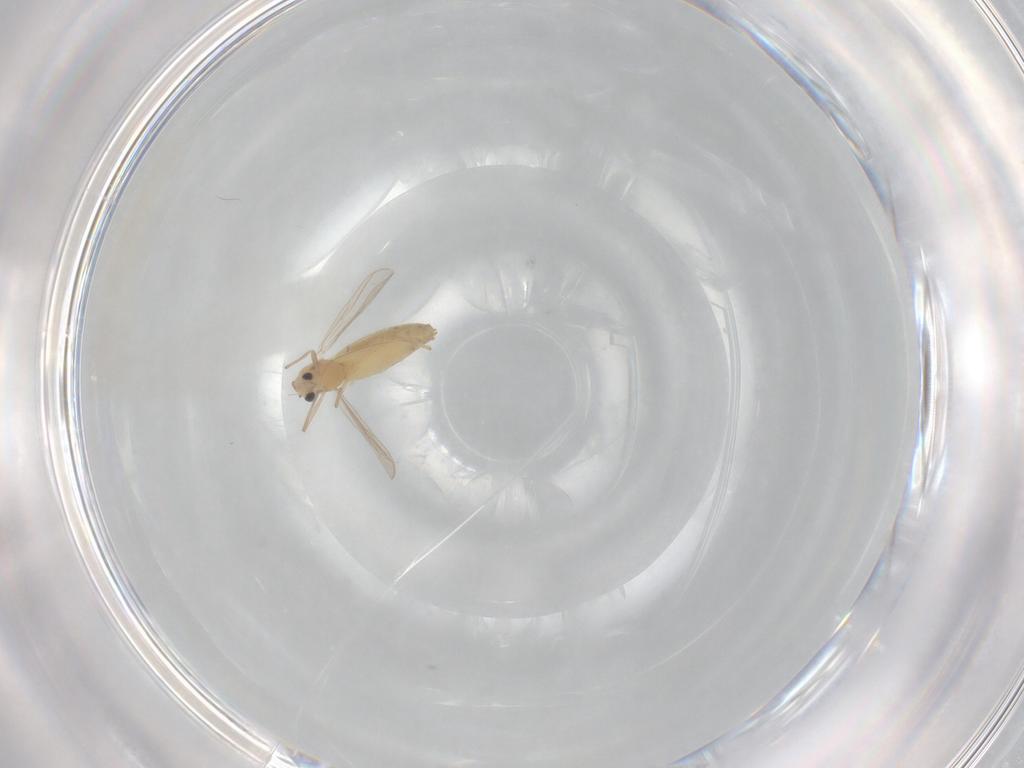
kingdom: Animalia
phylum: Arthropoda
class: Insecta
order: Diptera
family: Chironomidae
